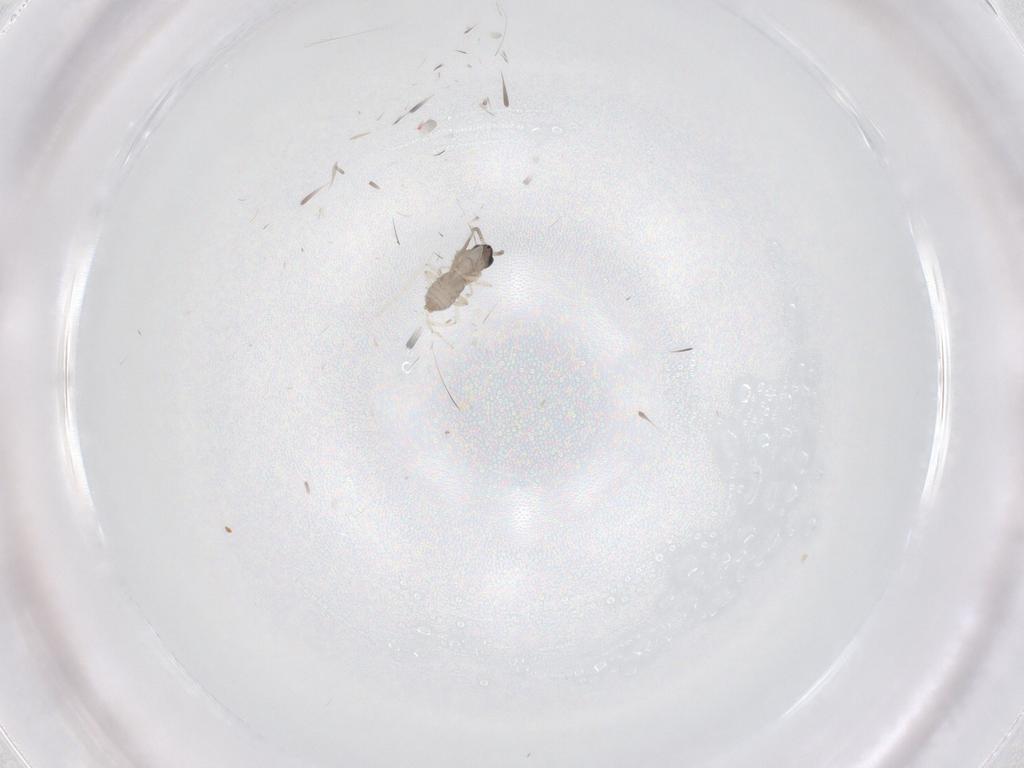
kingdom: Animalia
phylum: Arthropoda
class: Insecta
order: Diptera
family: Cecidomyiidae
